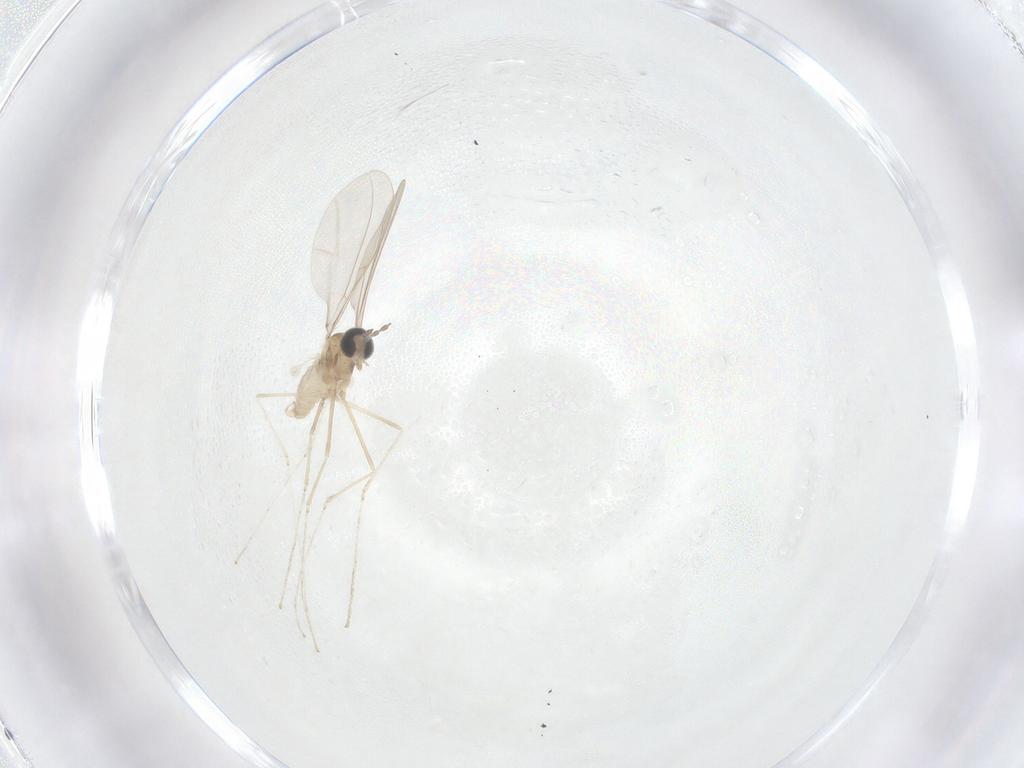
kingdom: Animalia
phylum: Arthropoda
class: Insecta
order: Diptera
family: Cecidomyiidae
